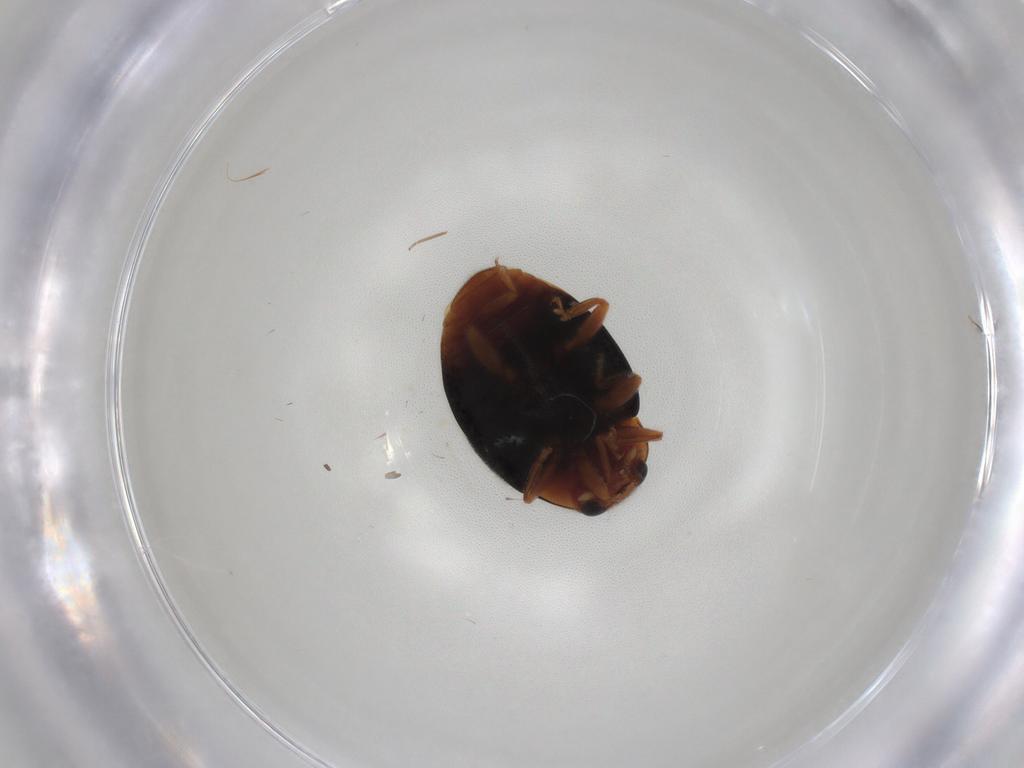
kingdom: Animalia
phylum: Arthropoda
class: Insecta
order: Coleoptera
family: Coccinellidae
